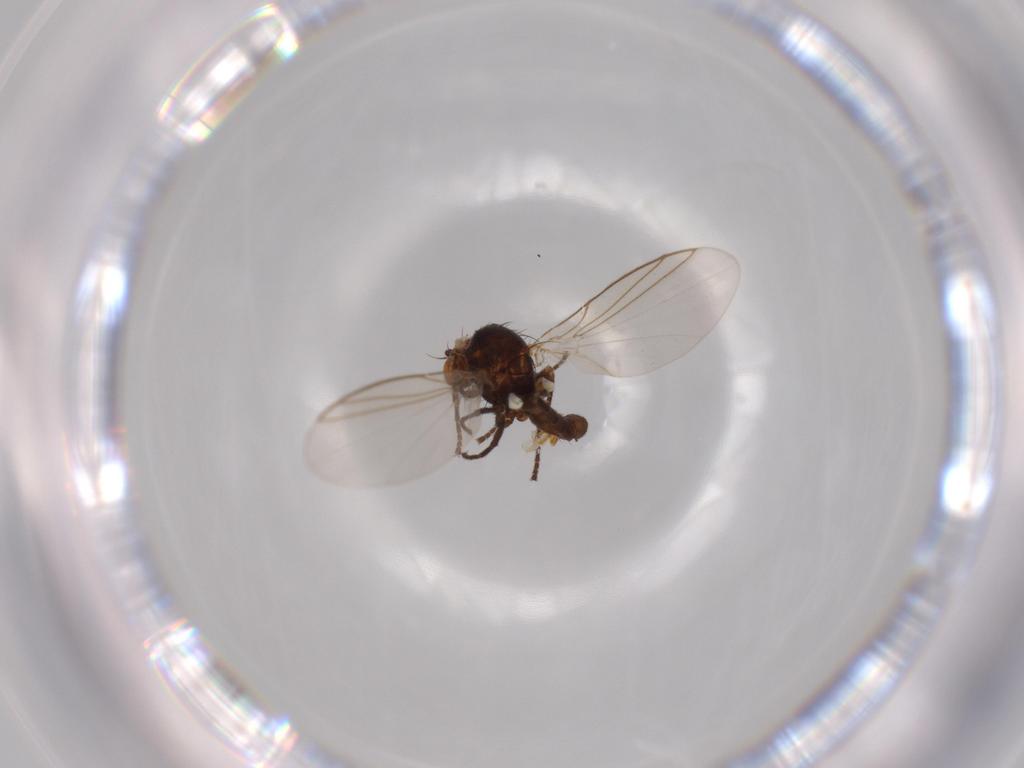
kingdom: Animalia
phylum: Arthropoda
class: Insecta
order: Diptera
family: Agromyzidae
